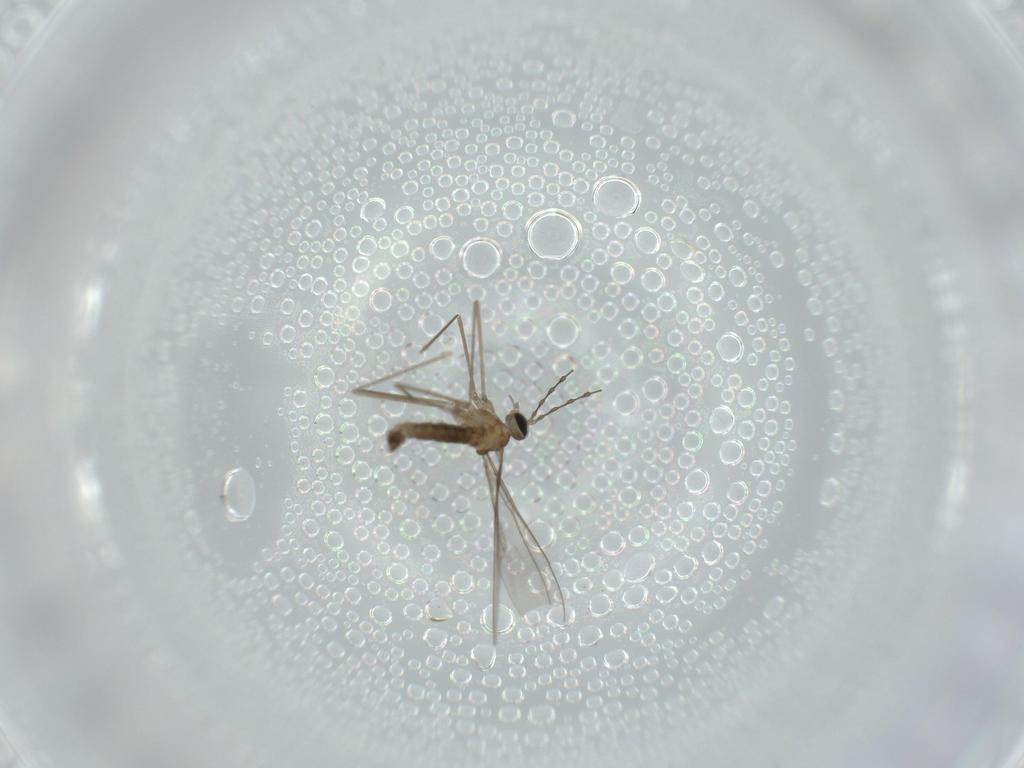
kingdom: Animalia
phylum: Arthropoda
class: Insecta
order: Diptera
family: Cecidomyiidae
